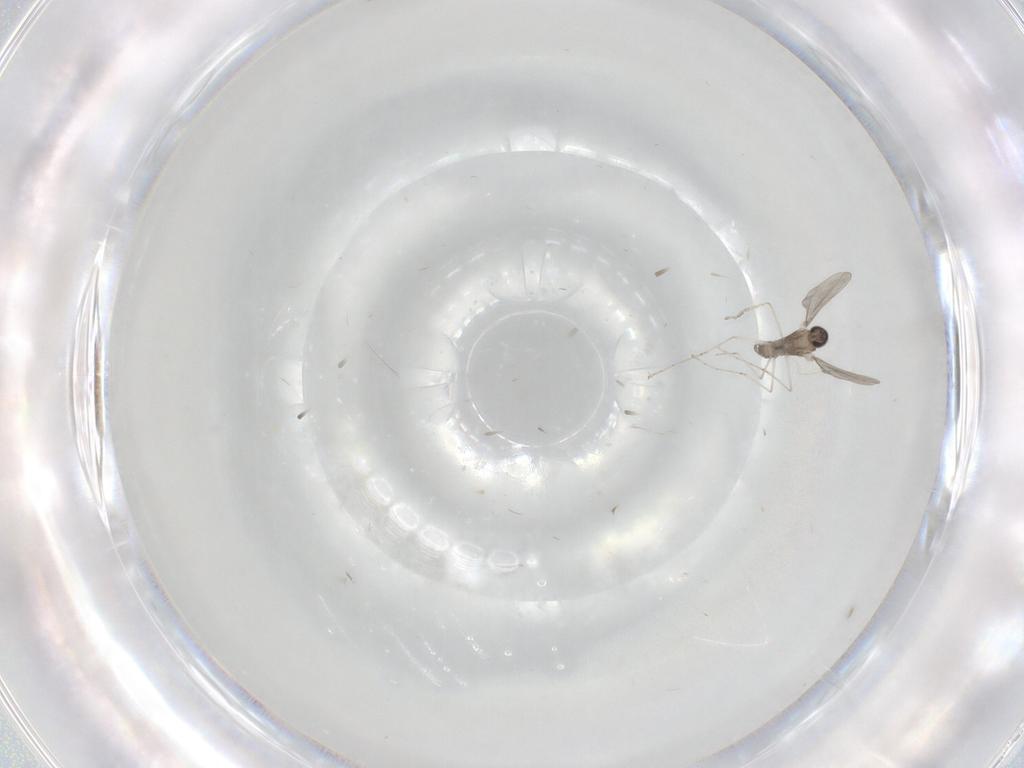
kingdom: Animalia
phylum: Arthropoda
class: Insecta
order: Diptera
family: Cecidomyiidae
